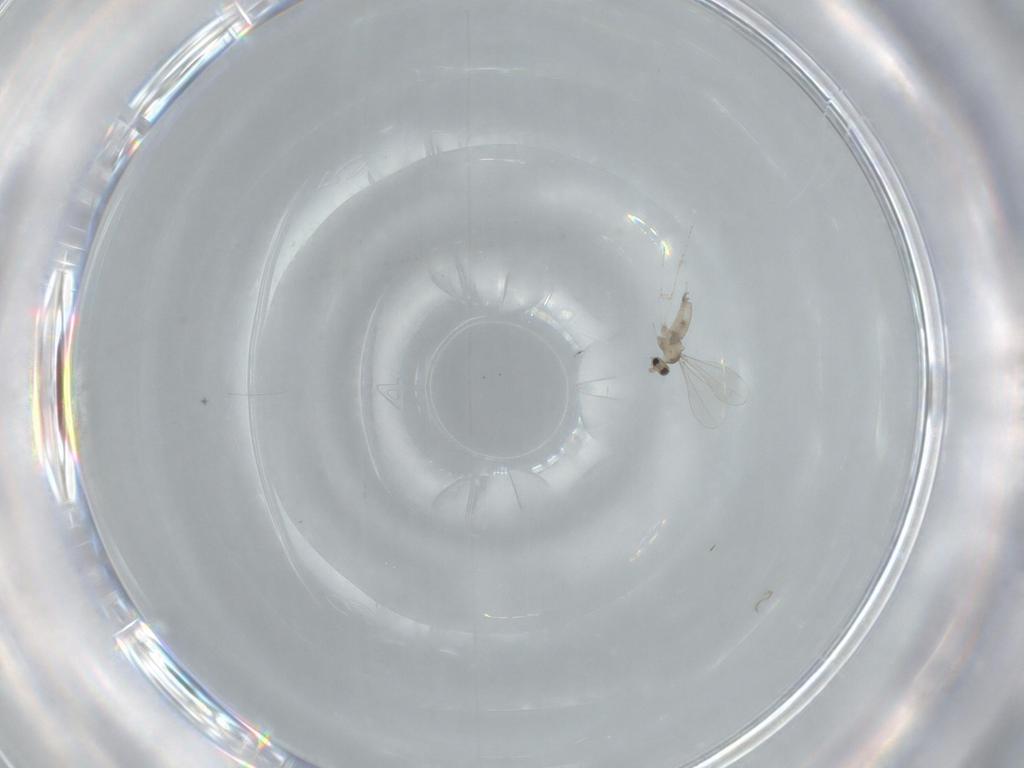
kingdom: Animalia
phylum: Arthropoda
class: Insecta
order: Diptera
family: Cecidomyiidae
